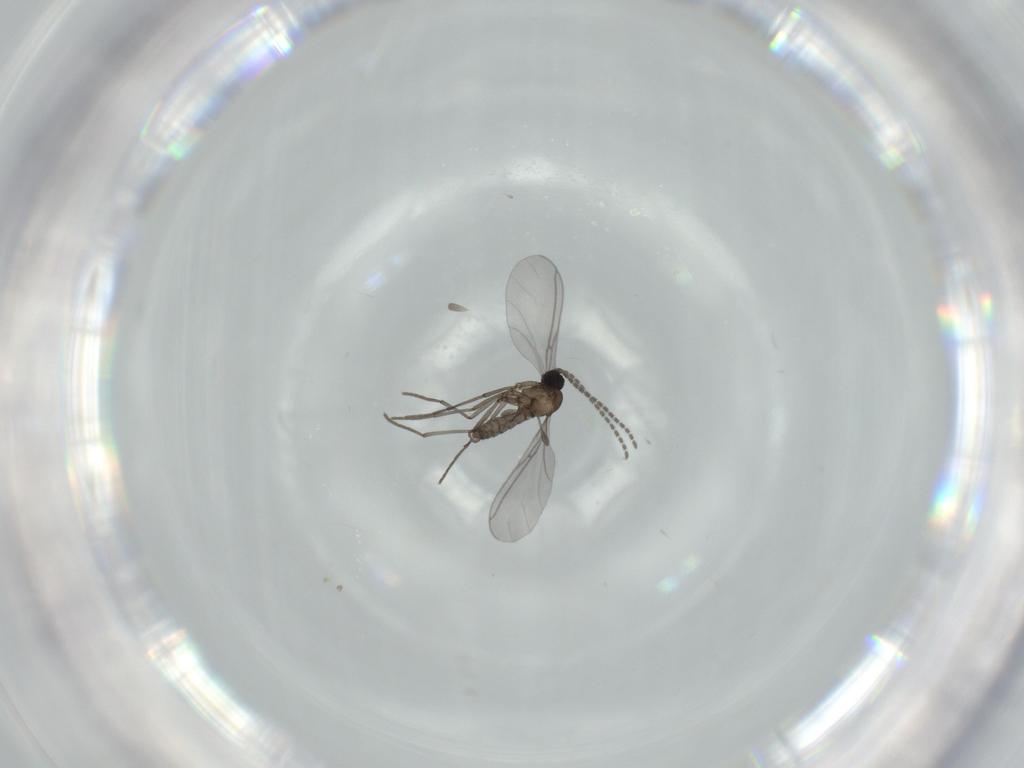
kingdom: Animalia
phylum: Arthropoda
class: Insecta
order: Diptera
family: Sciaridae
